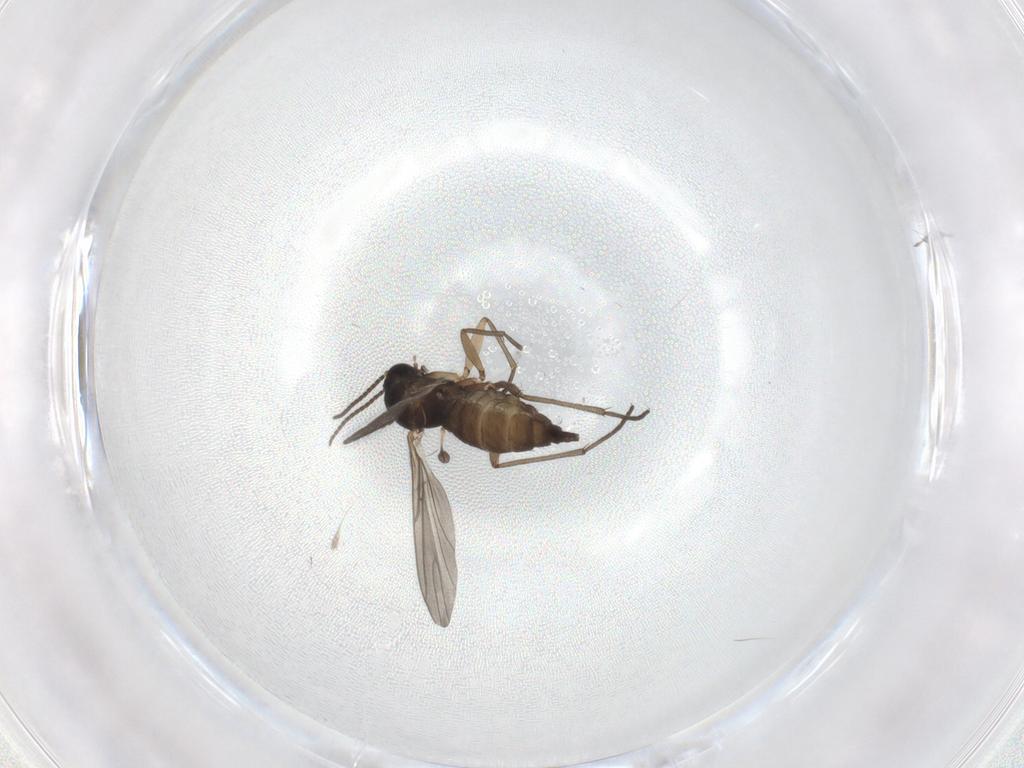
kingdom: Animalia
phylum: Arthropoda
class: Insecta
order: Diptera
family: Sciaridae
